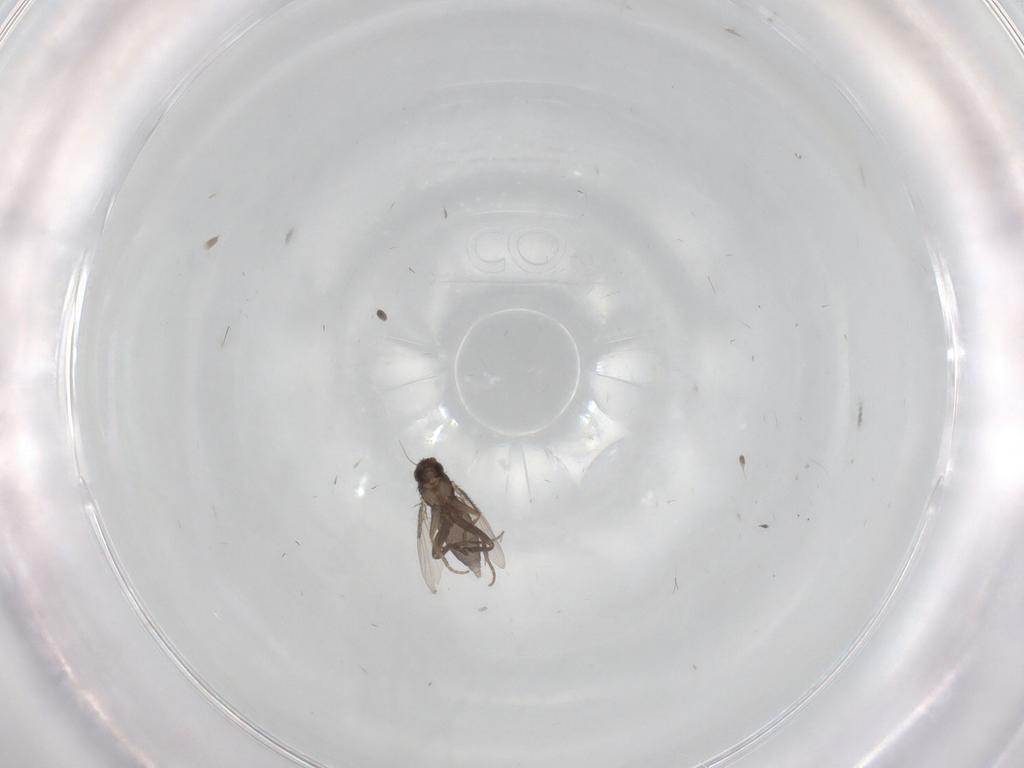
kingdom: Animalia
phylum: Arthropoda
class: Insecta
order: Diptera
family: Phoridae
